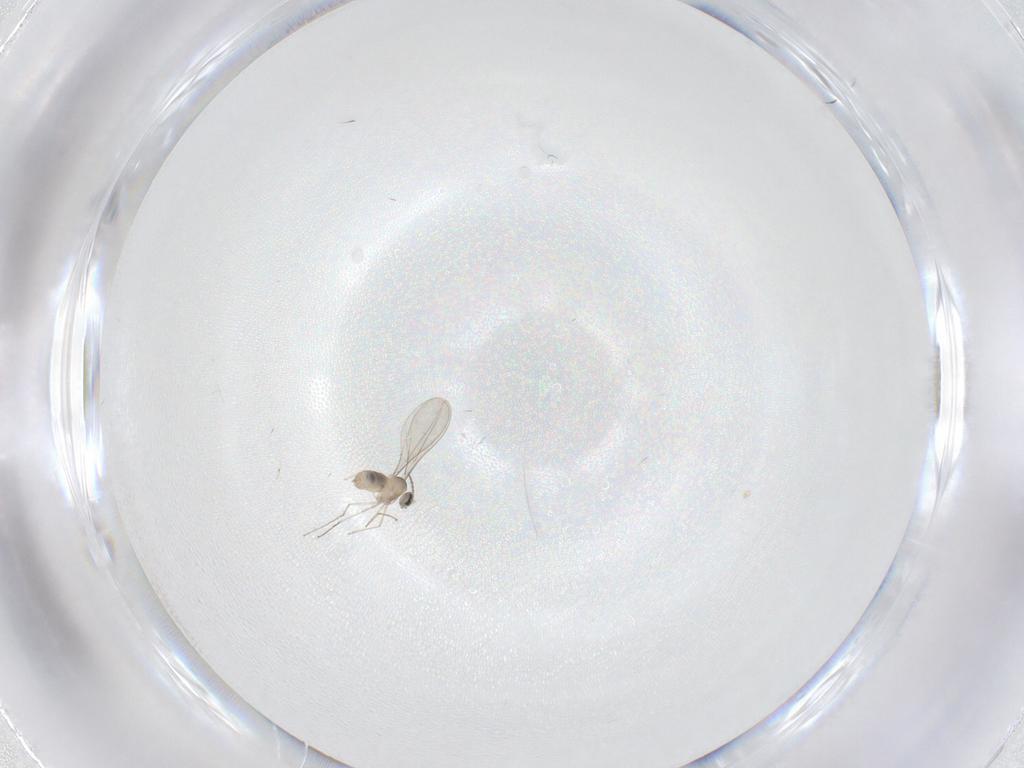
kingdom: Animalia
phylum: Arthropoda
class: Insecta
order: Diptera
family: Cecidomyiidae
